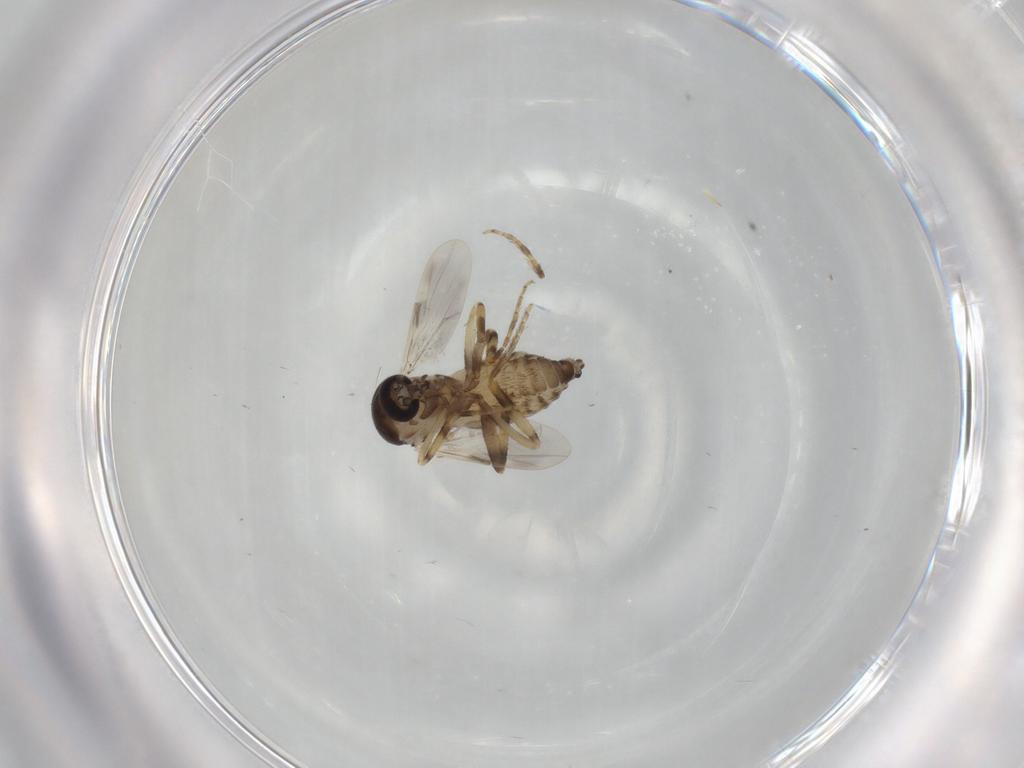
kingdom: Animalia
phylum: Arthropoda
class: Insecta
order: Diptera
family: Ceratopogonidae
